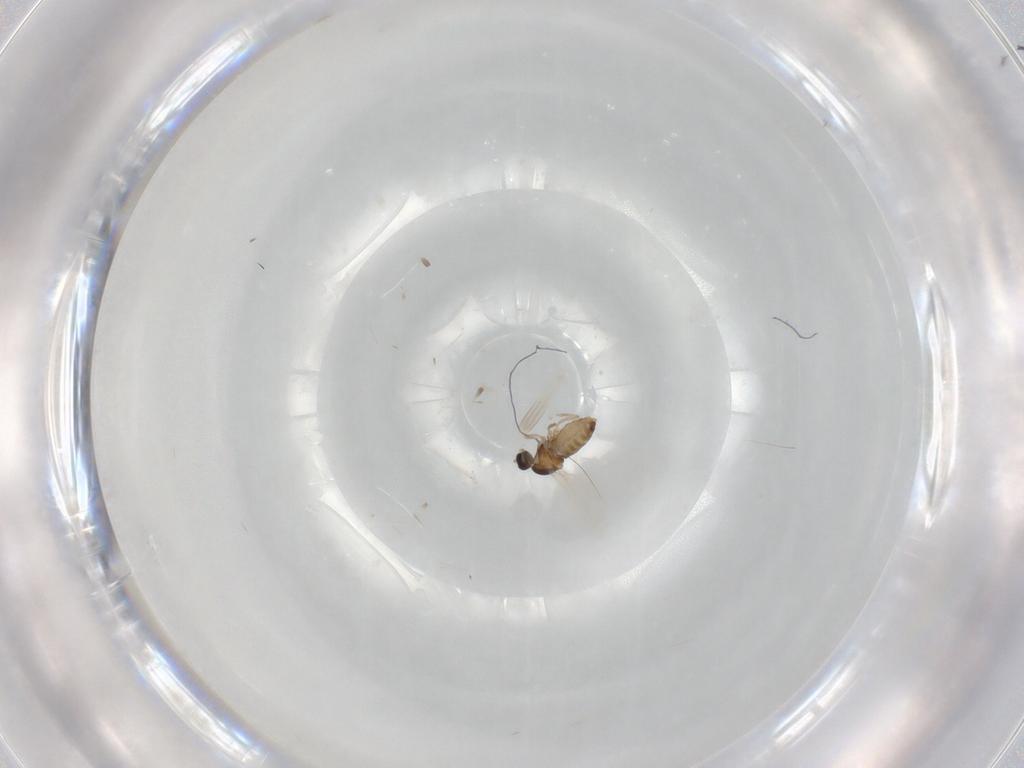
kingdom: Animalia
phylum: Arthropoda
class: Insecta
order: Diptera
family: Cecidomyiidae
